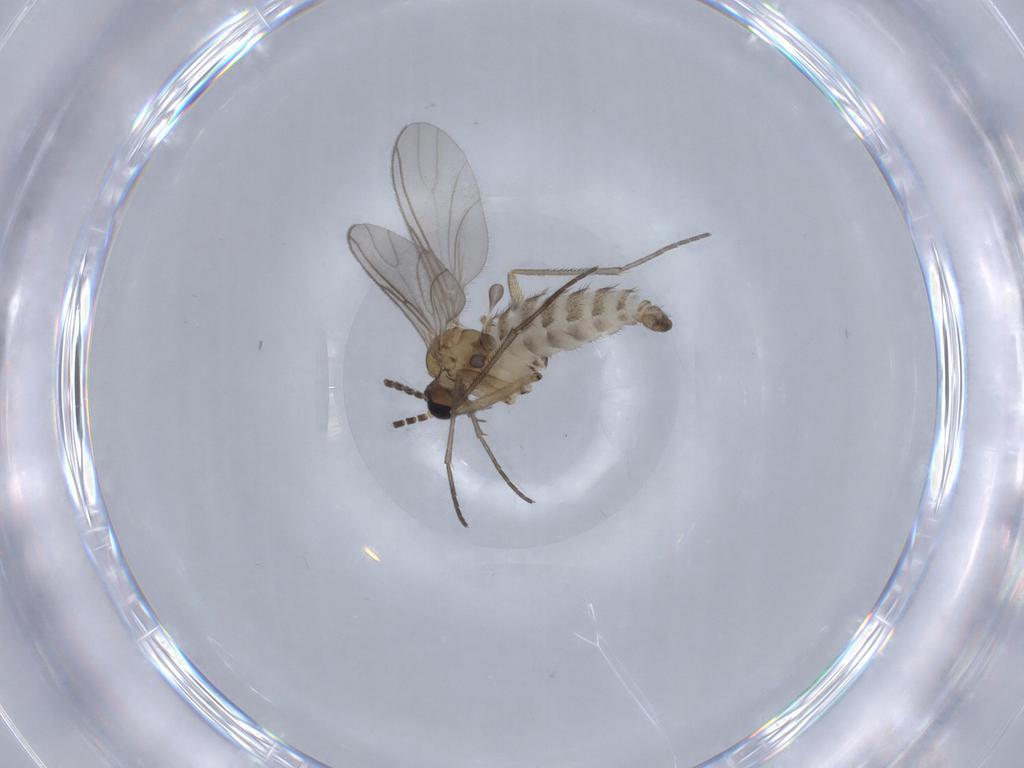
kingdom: Animalia
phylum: Arthropoda
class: Insecta
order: Diptera
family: Sciaridae
